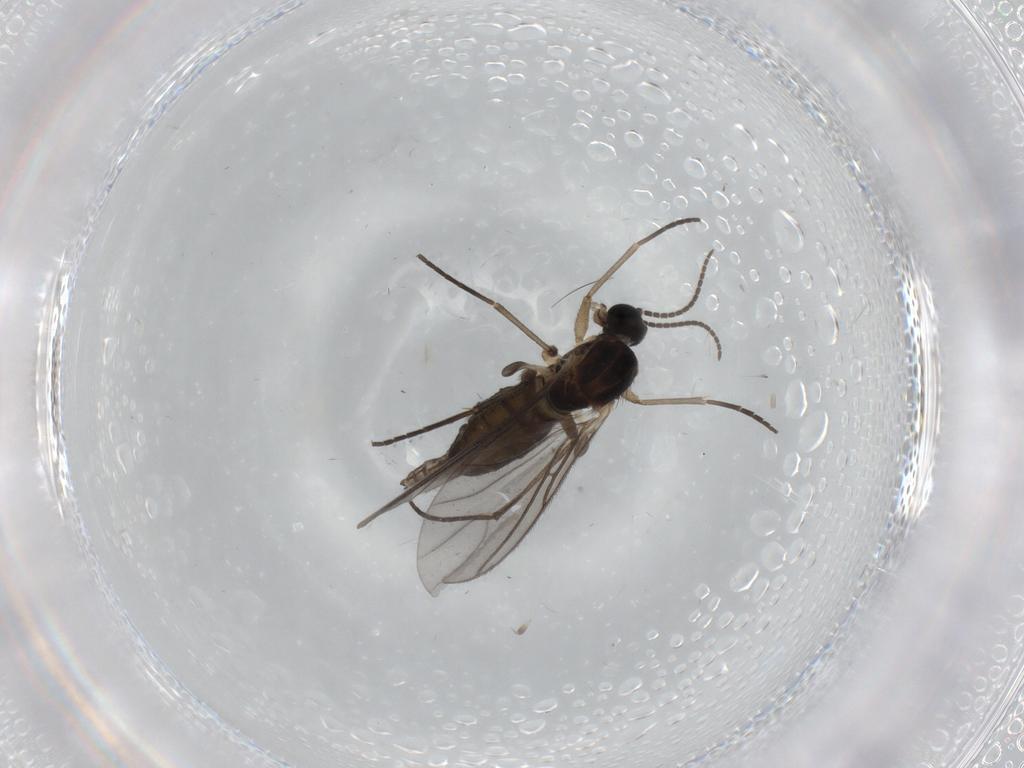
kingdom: Animalia
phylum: Arthropoda
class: Insecta
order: Diptera
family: Sciaridae
